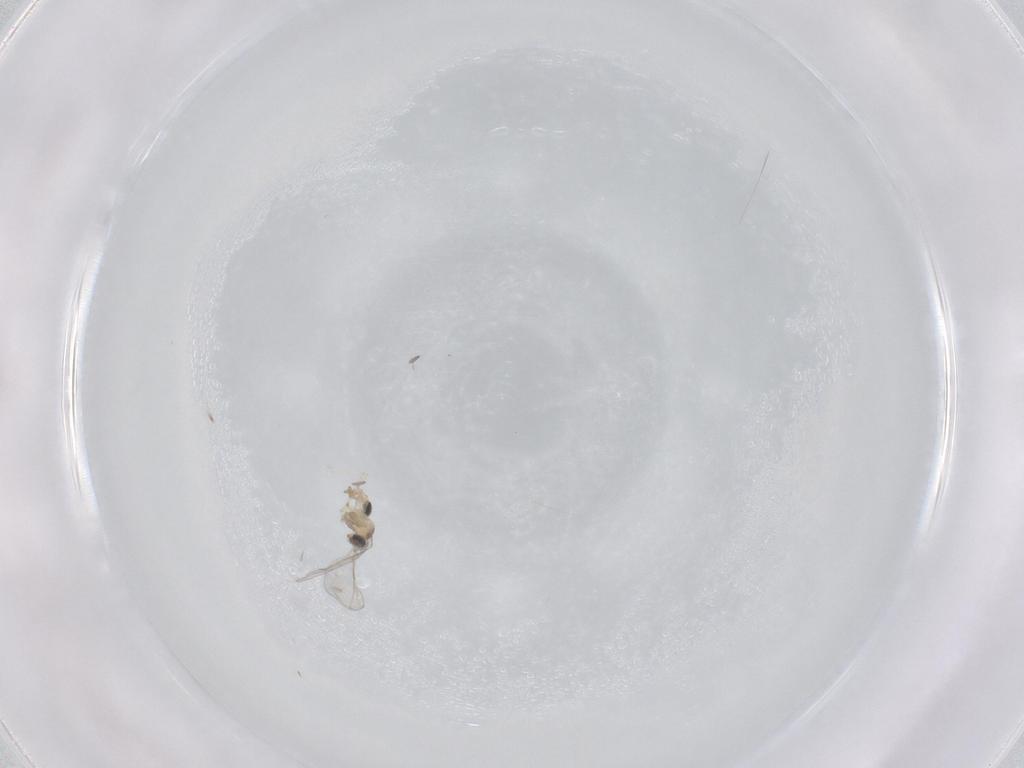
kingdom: Animalia
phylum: Arthropoda
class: Insecta
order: Diptera
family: Cecidomyiidae
